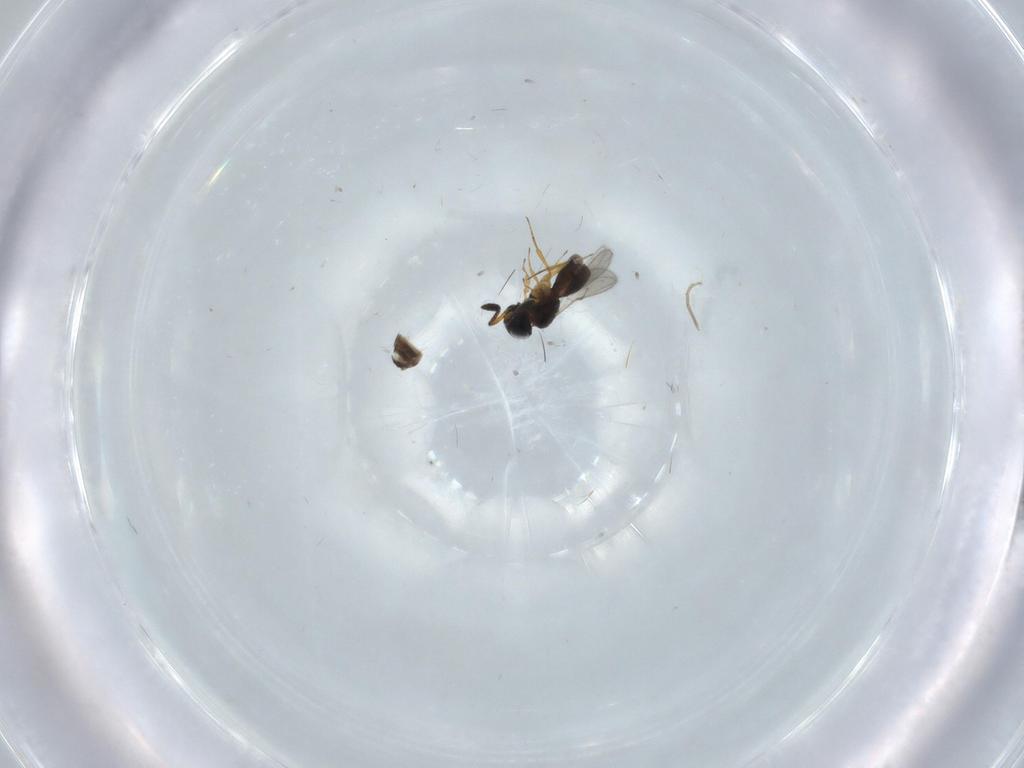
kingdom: Animalia
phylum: Arthropoda
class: Insecta
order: Hymenoptera
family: Scelionidae
